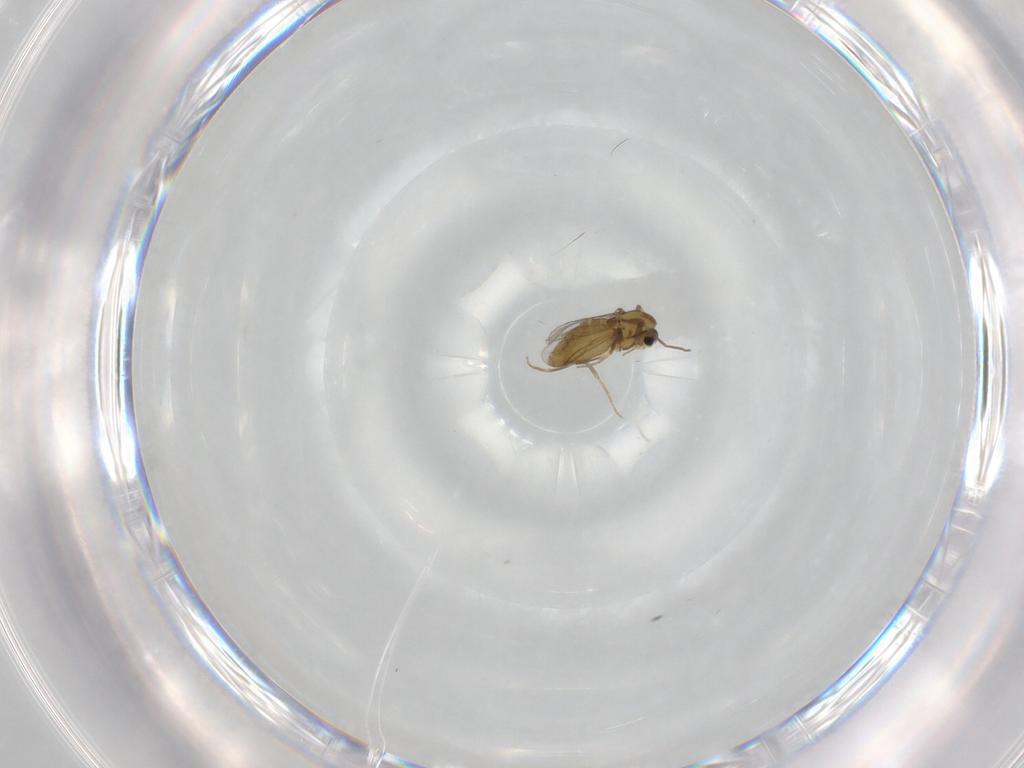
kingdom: Animalia
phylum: Arthropoda
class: Insecta
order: Diptera
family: Chironomidae
